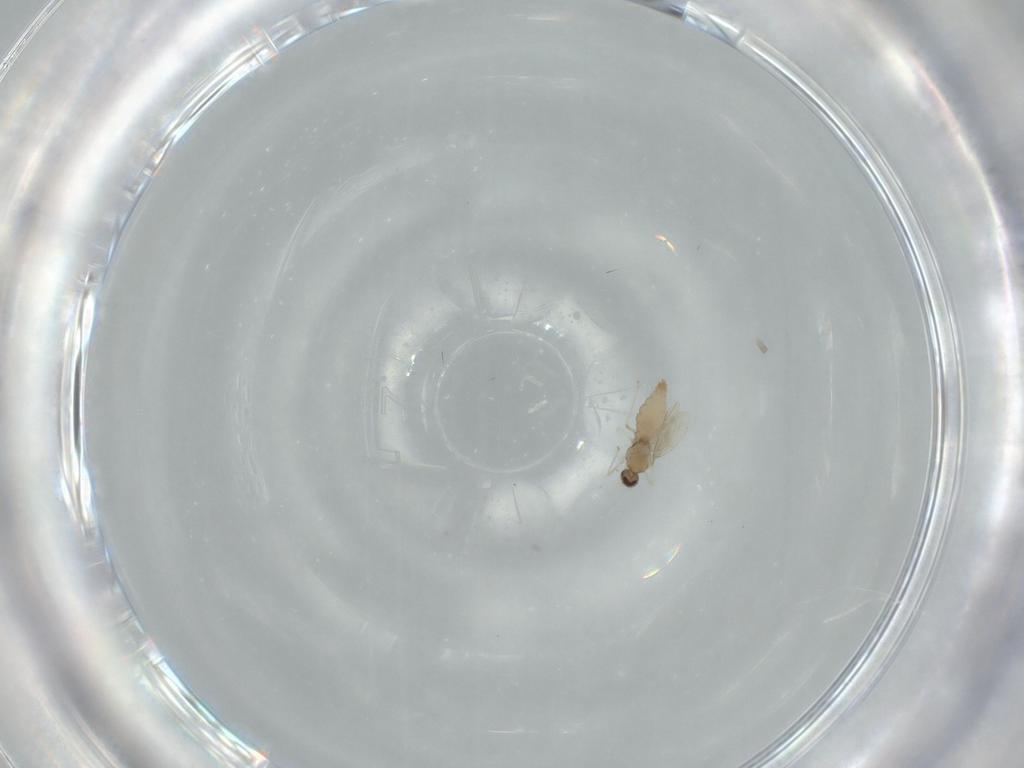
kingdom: Animalia
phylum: Arthropoda
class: Insecta
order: Diptera
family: Cecidomyiidae
